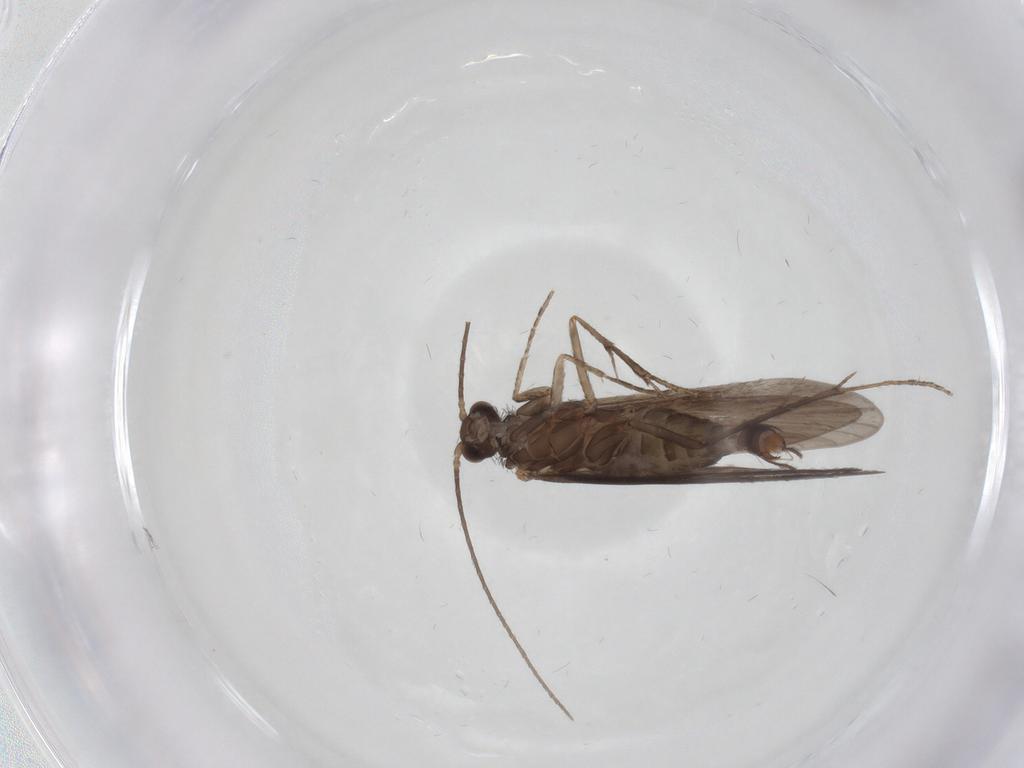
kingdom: Animalia
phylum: Arthropoda
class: Insecta
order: Trichoptera
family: Xiphocentronidae
